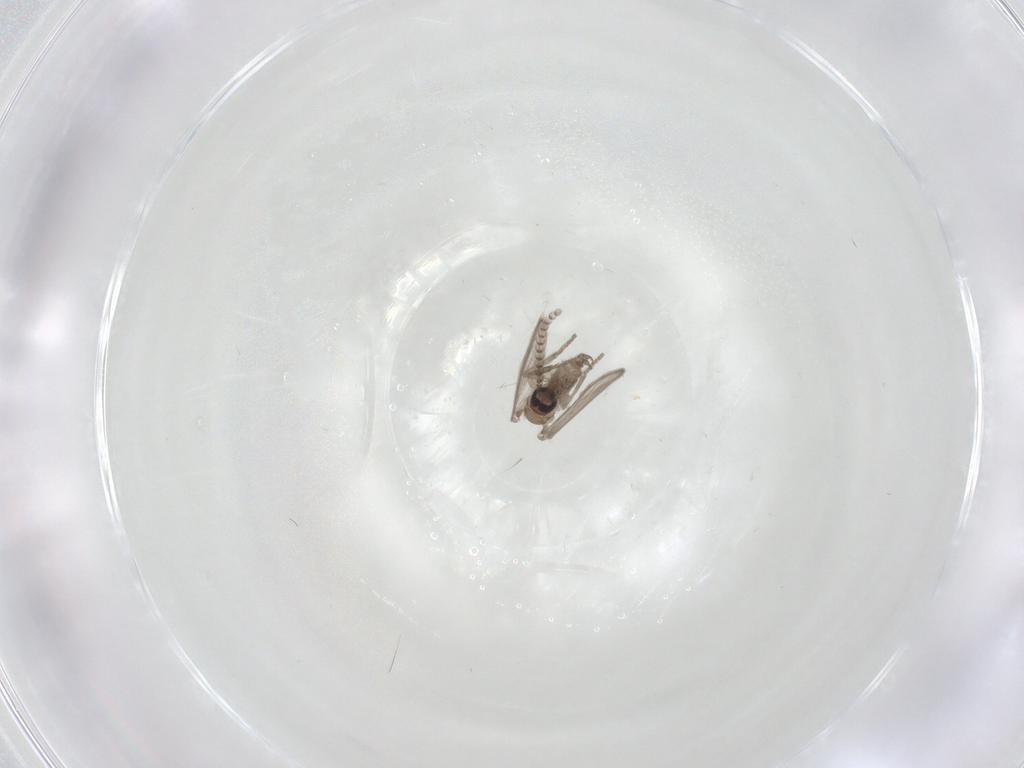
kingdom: Animalia
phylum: Arthropoda
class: Insecta
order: Diptera
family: Psychodidae
